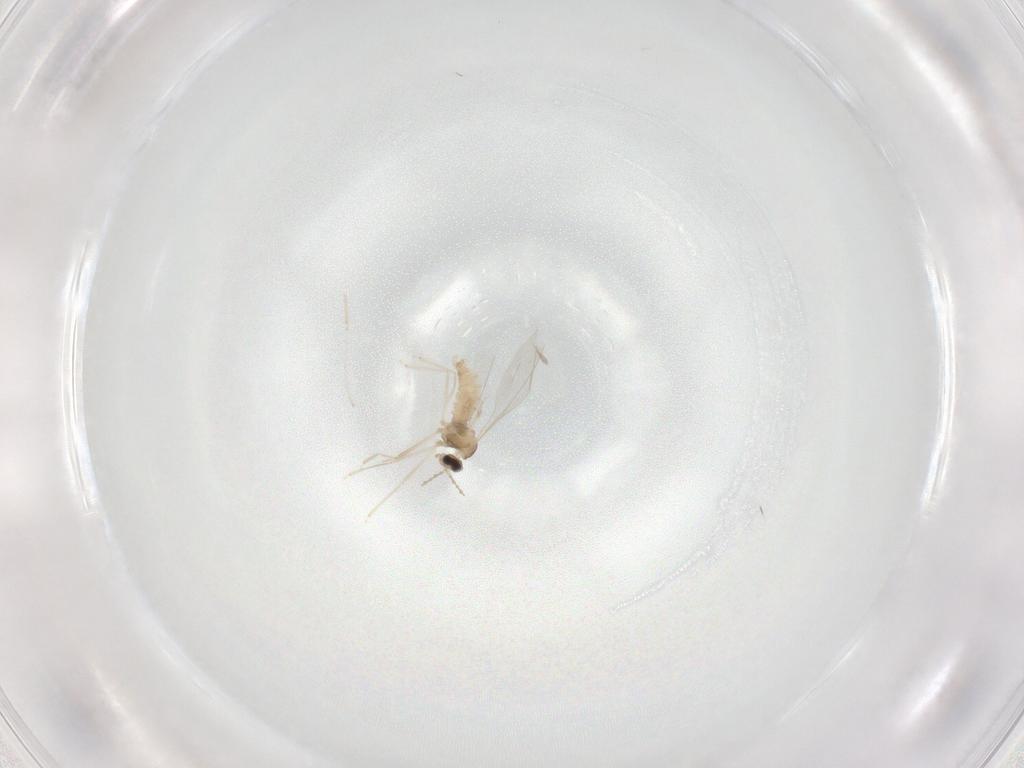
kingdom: Animalia
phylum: Arthropoda
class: Insecta
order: Diptera
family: Cecidomyiidae
